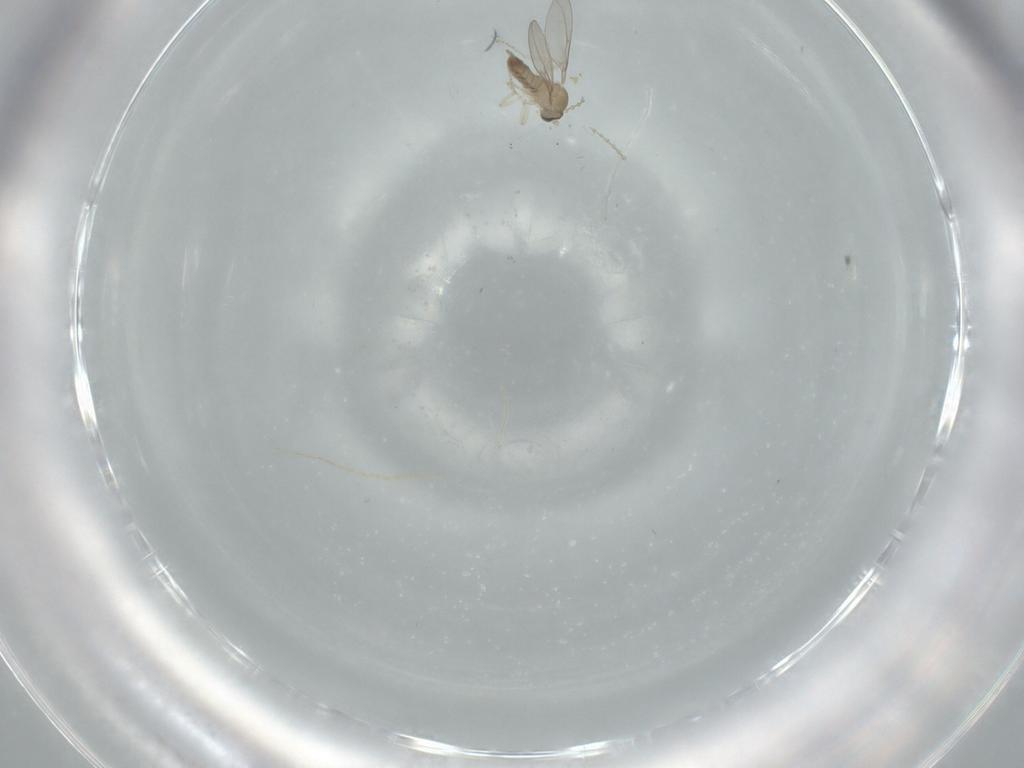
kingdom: Animalia
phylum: Arthropoda
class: Insecta
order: Diptera
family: Cecidomyiidae
